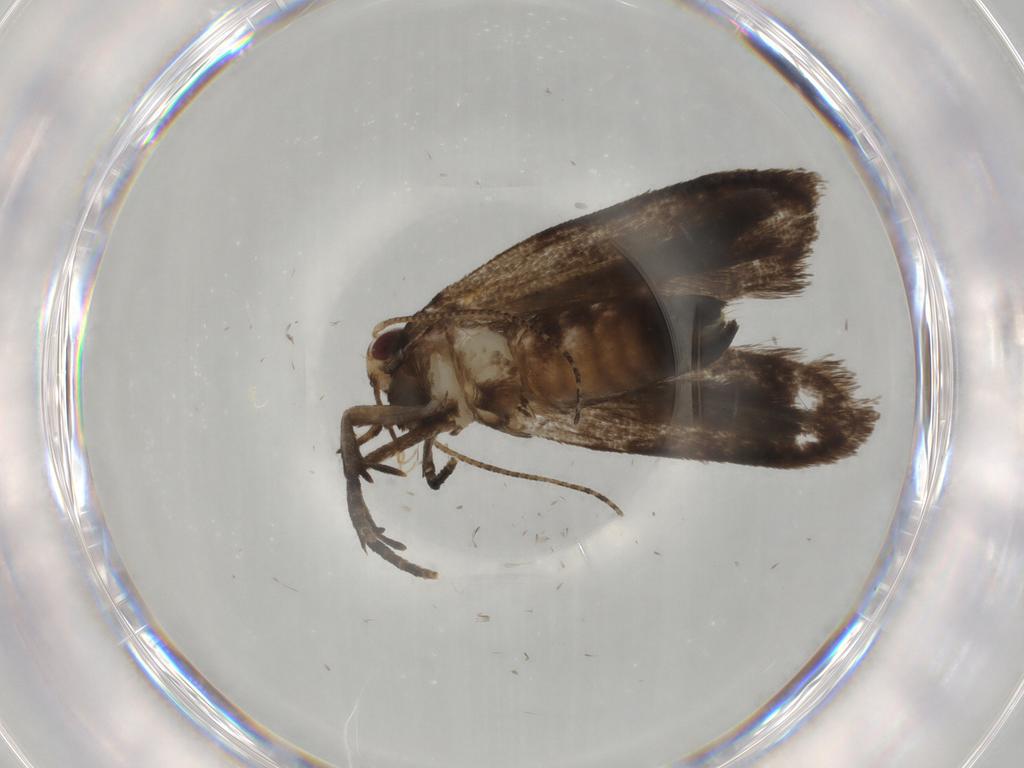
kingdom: Animalia
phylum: Arthropoda
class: Insecta
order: Lepidoptera
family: Gelechiidae
